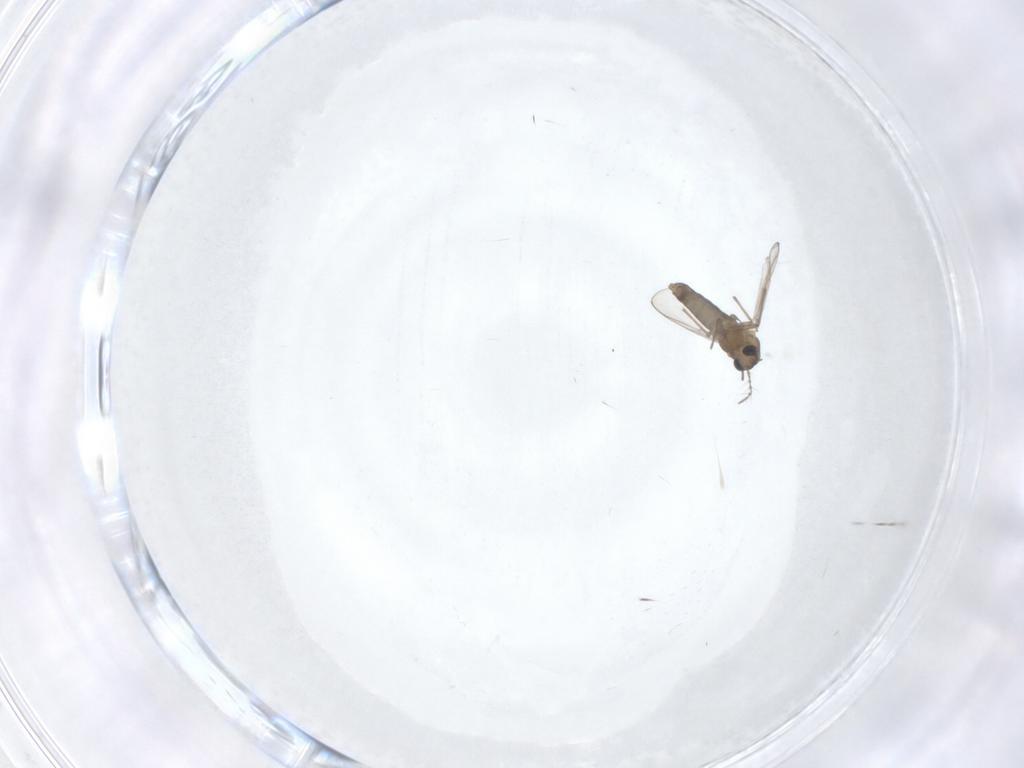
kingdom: Animalia
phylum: Arthropoda
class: Insecta
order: Diptera
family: Chironomidae
